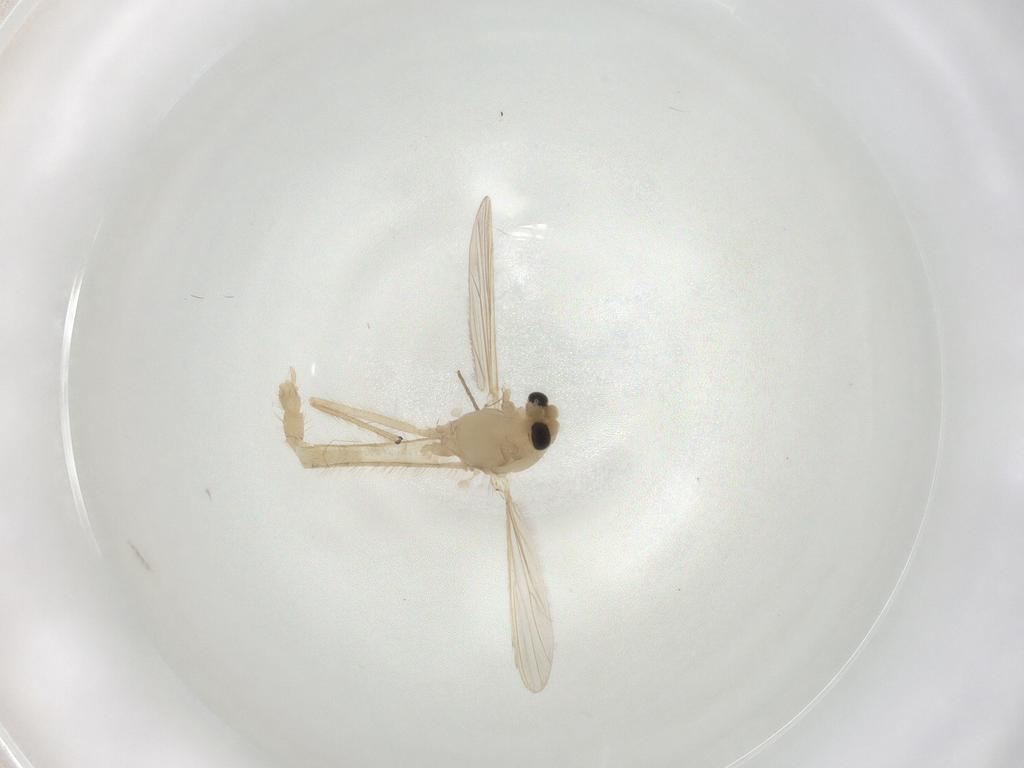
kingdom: Animalia
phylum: Arthropoda
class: Insecta
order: Diptera
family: Chironomidae
